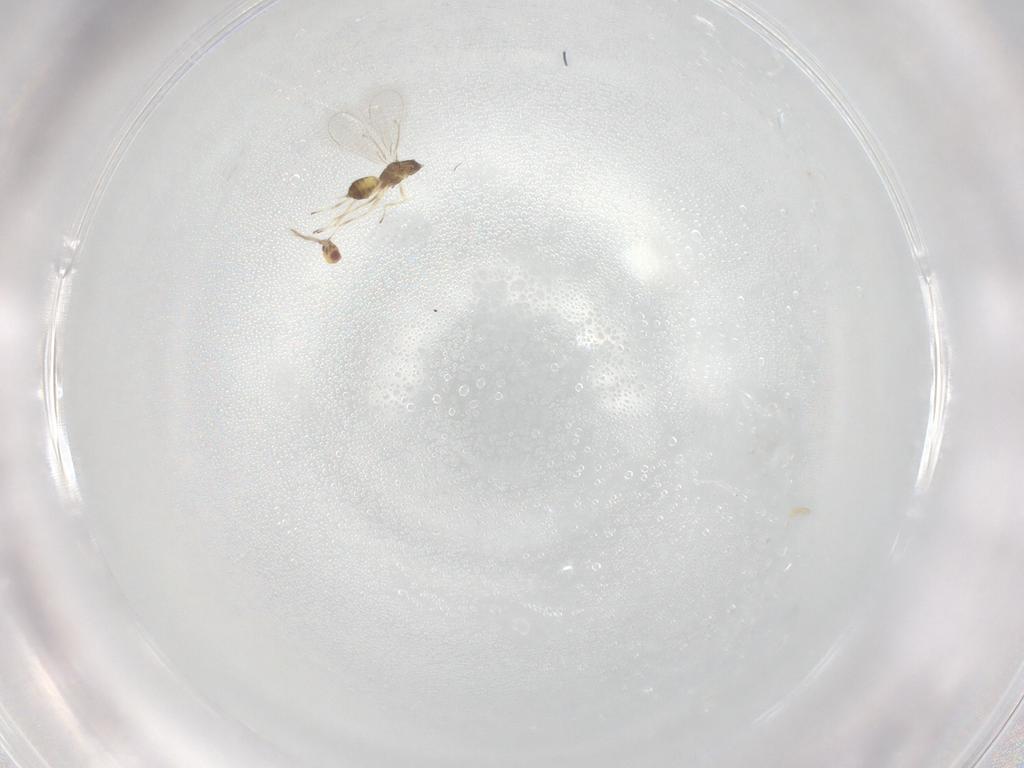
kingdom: Animalia
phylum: Arthropoda
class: Insecta
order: Hymenoptera
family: Eulophidae
